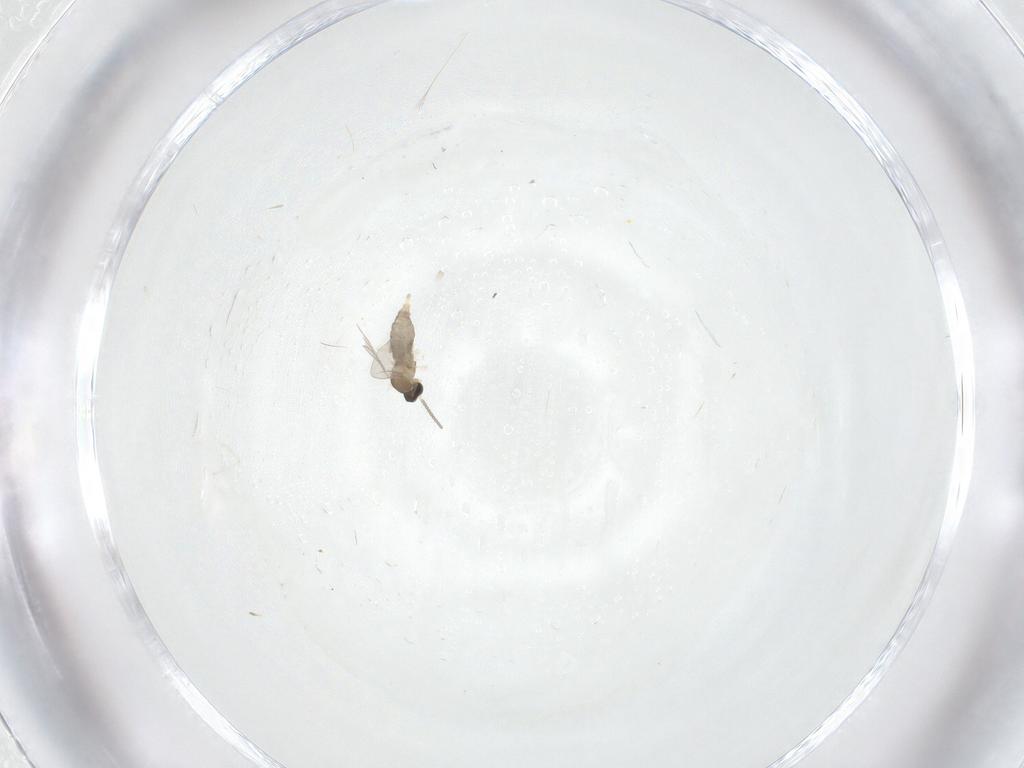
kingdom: Animalia
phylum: Arthropoda
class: Insecta
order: Diptera
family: Cecidomyiidae
